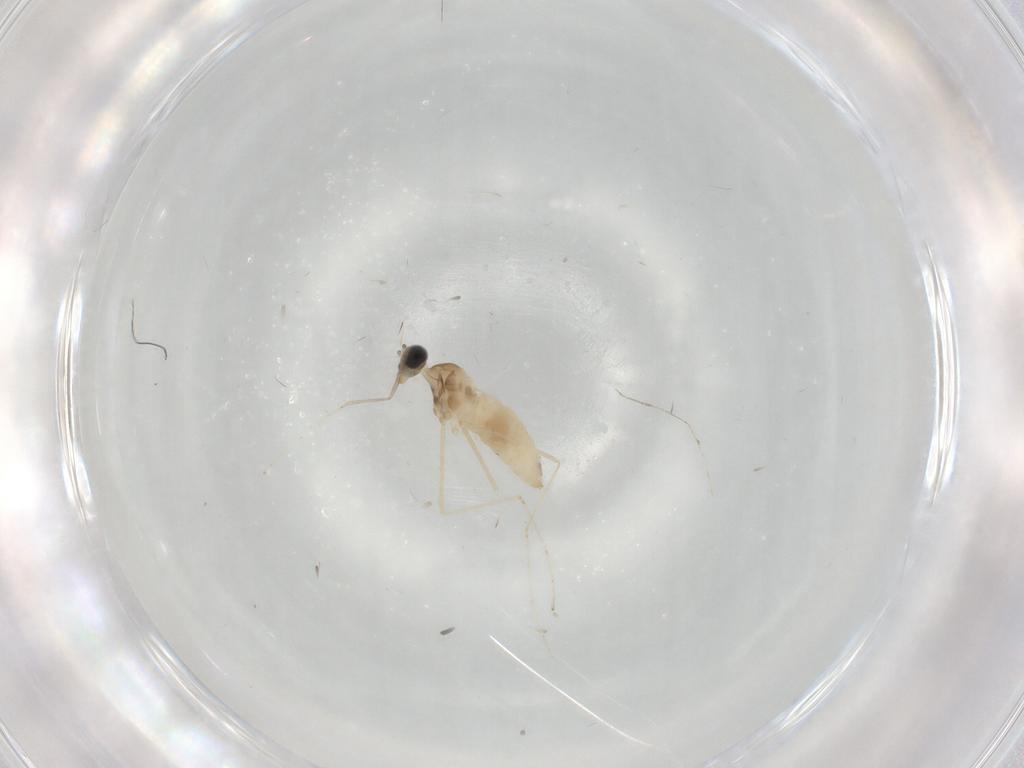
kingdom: Animalia
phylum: Arthropoda
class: Insecta
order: Diptera
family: Cecidomyiidae
